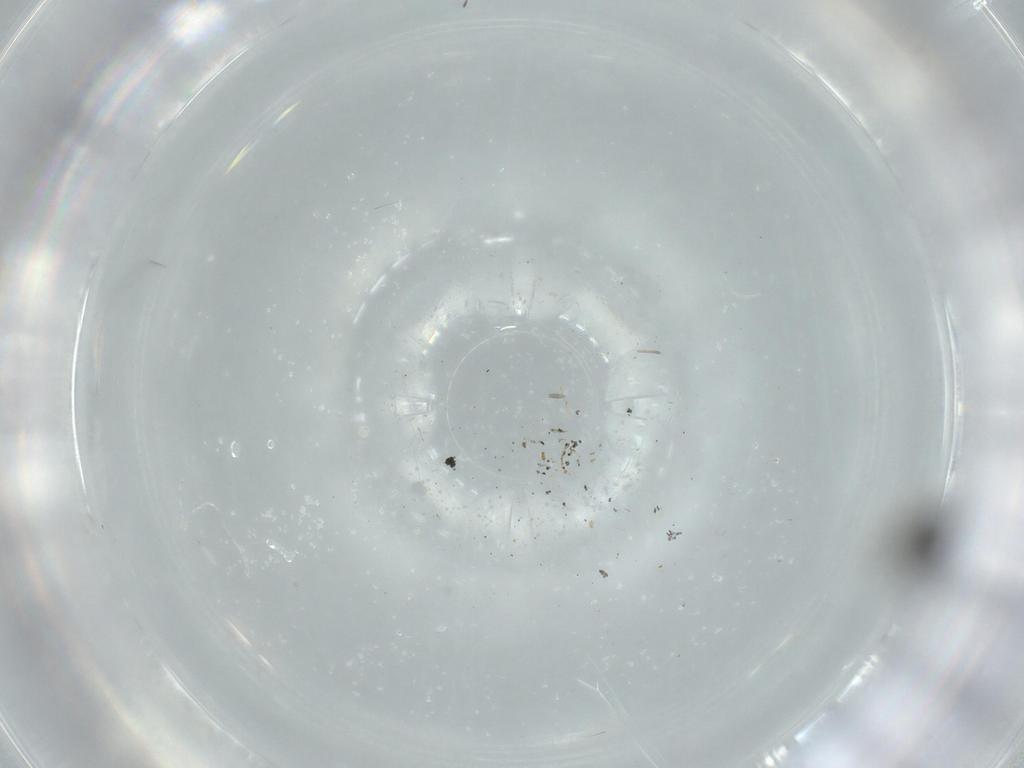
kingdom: Animalia
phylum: Arthropoda
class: Insecta
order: Diptera
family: Cecidomyiidae
